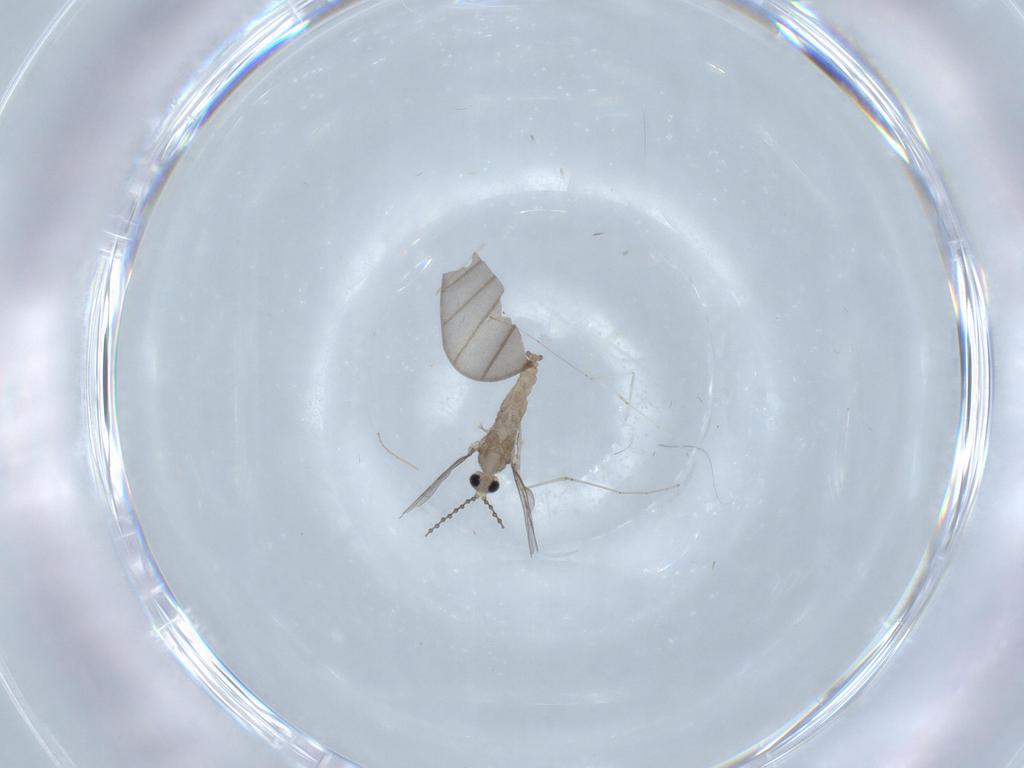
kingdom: Animalia
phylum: Arthropoda
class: Insecta
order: Diptera
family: Cecidomyiidae
